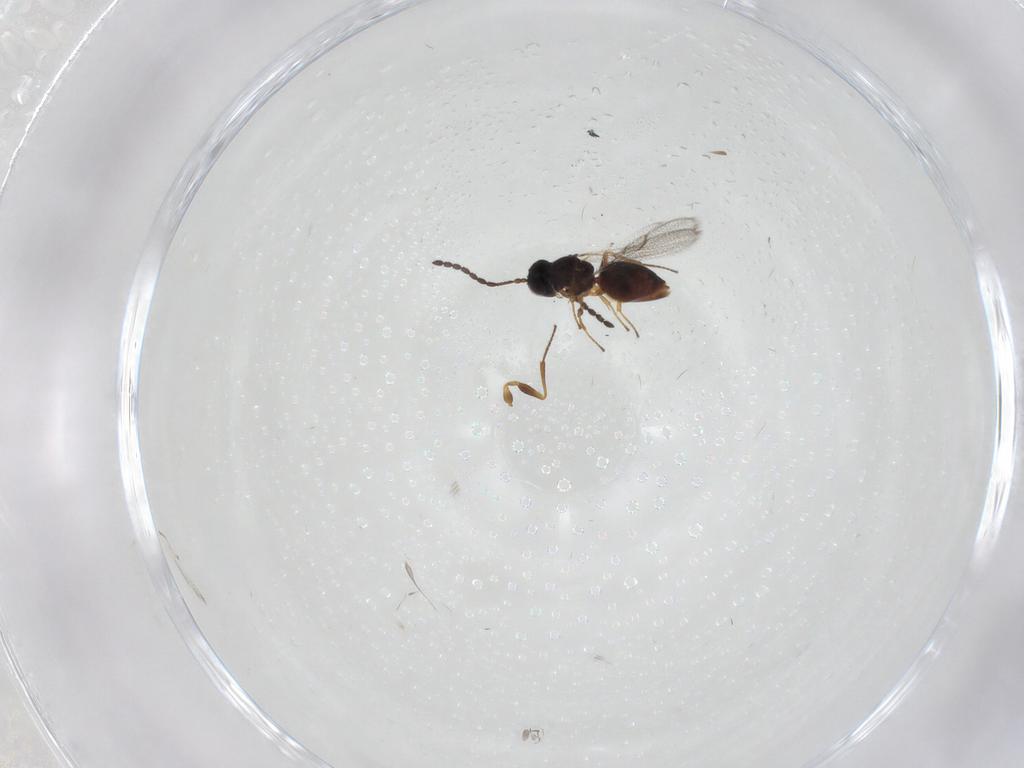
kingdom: Animalia
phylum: Arthropoda
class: Insecta
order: Hymenoptera
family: Figitidae
